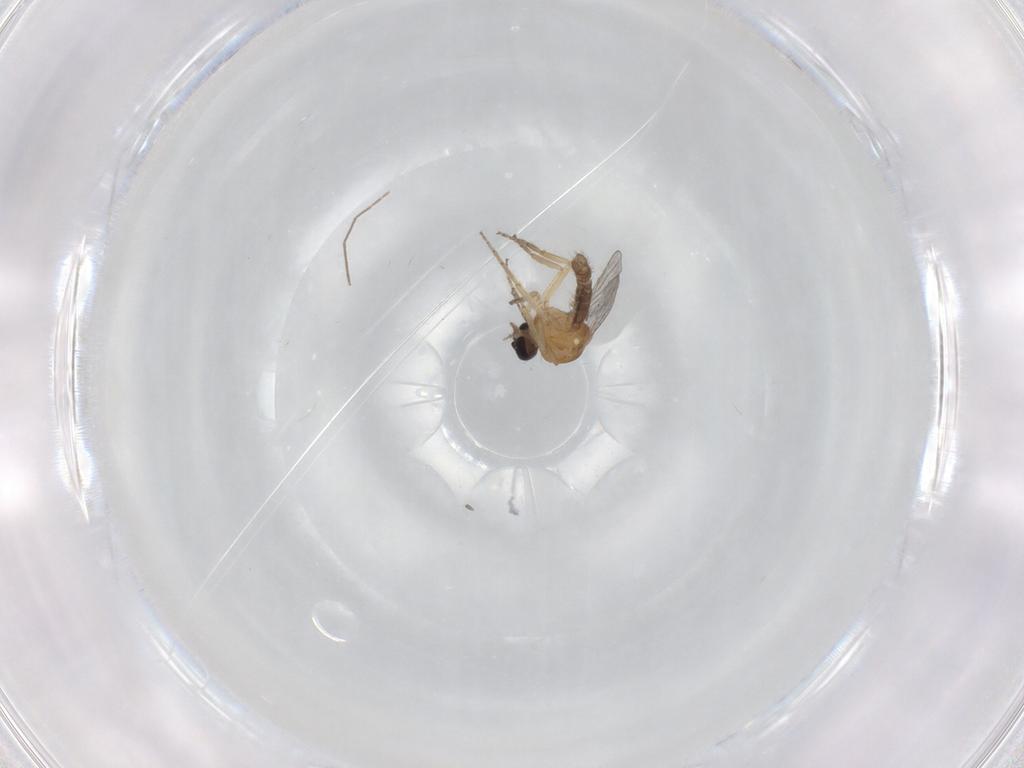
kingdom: Animalia
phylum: Arthropoda
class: Insecta
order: Diptera
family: Ceratopogonidae
